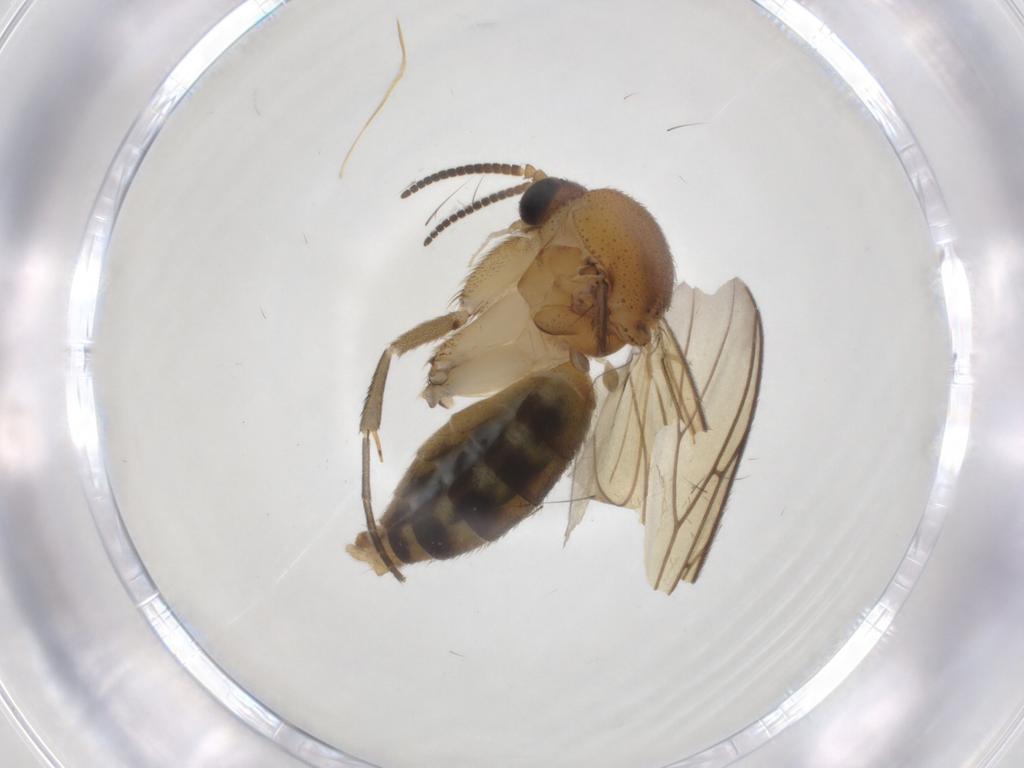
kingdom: Animalia
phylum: Arthropoda
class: Insecta
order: Diptera
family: Mycetophilidae
